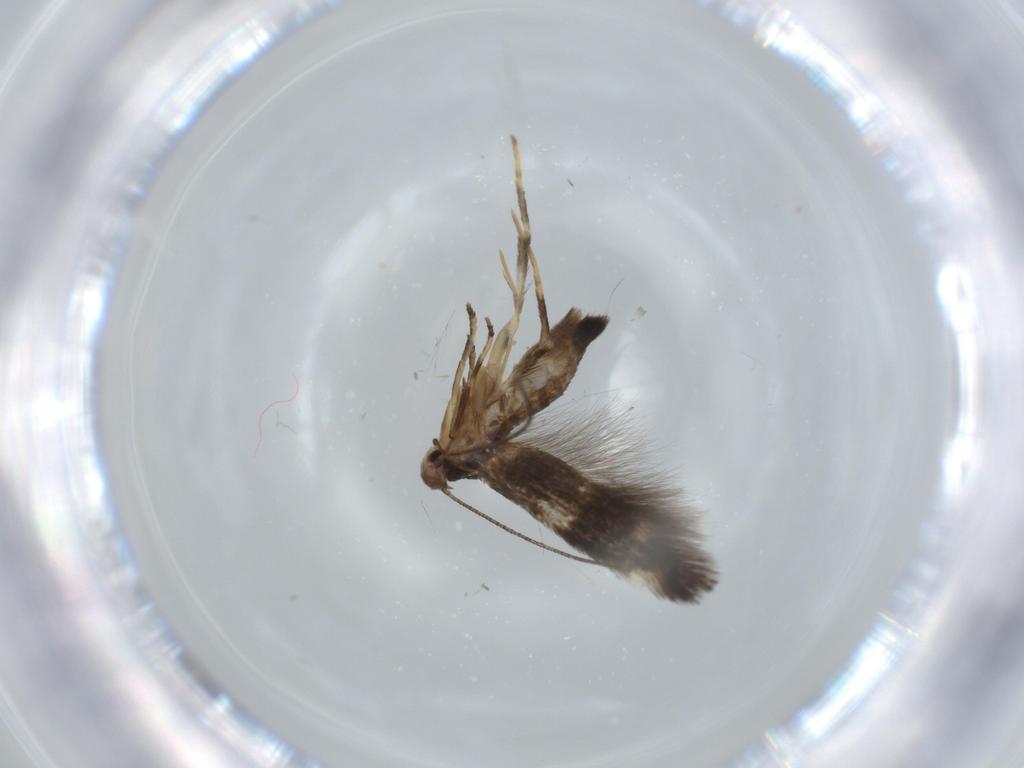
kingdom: Animalia
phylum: Arthropoda
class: Insecta
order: Lepidoptera
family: Cosmopterigidae
